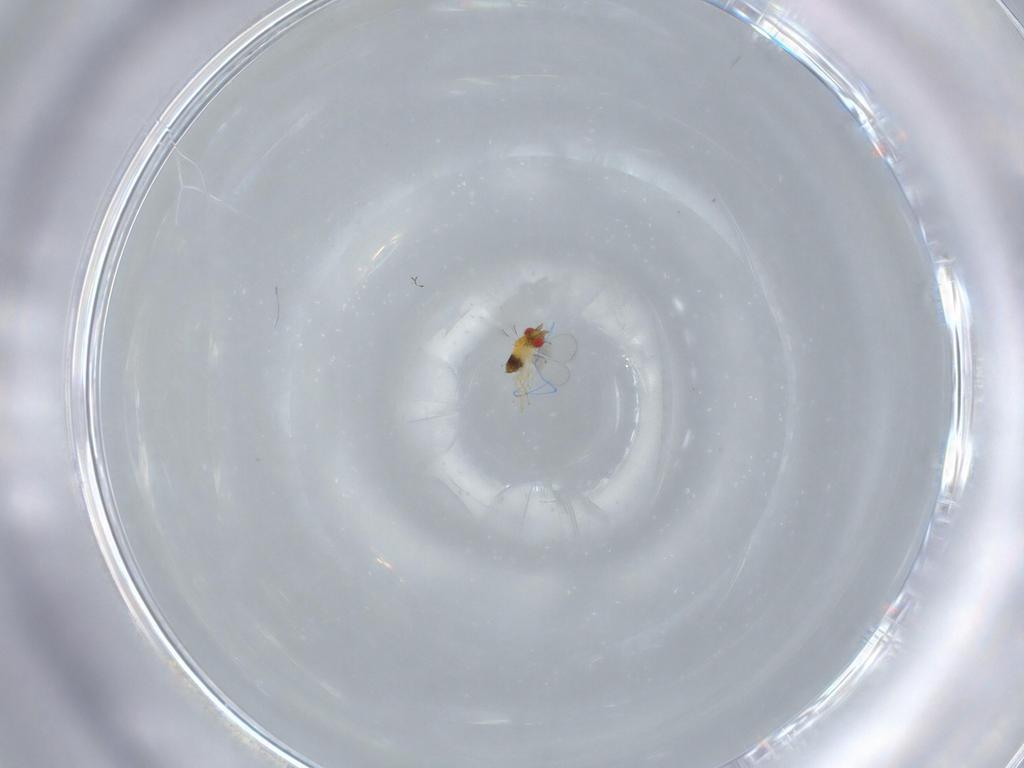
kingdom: Animalia
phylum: Arthropoda
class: Insecta
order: Hymenoptera
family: Trichogrammatidae
